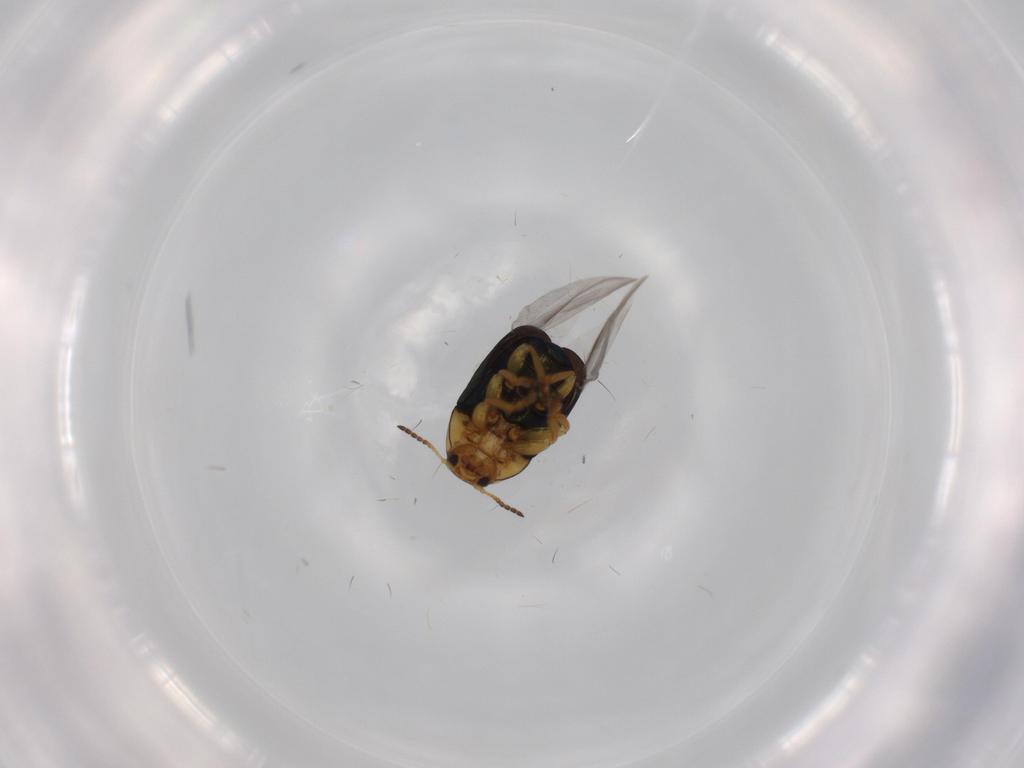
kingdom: Animalia
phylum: Arthropoda
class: Insecta
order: Coleoptera
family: Chrysomelidae
